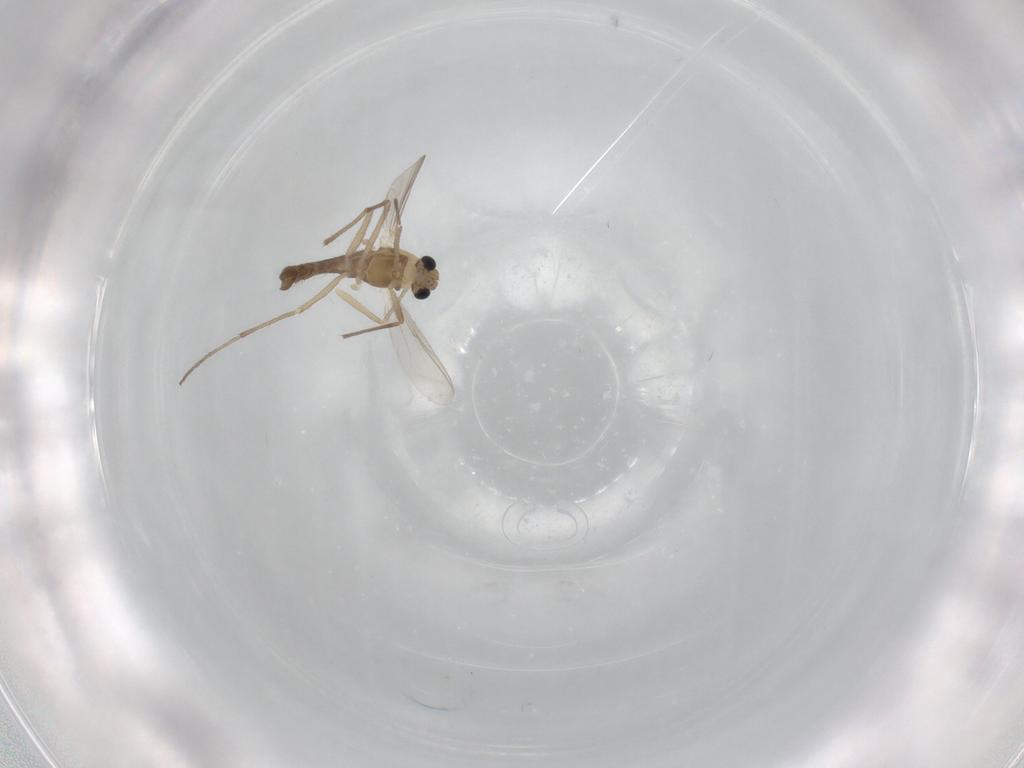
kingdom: Animalia
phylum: Arthropoda
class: Insecta
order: Diptera
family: Chironomidae
